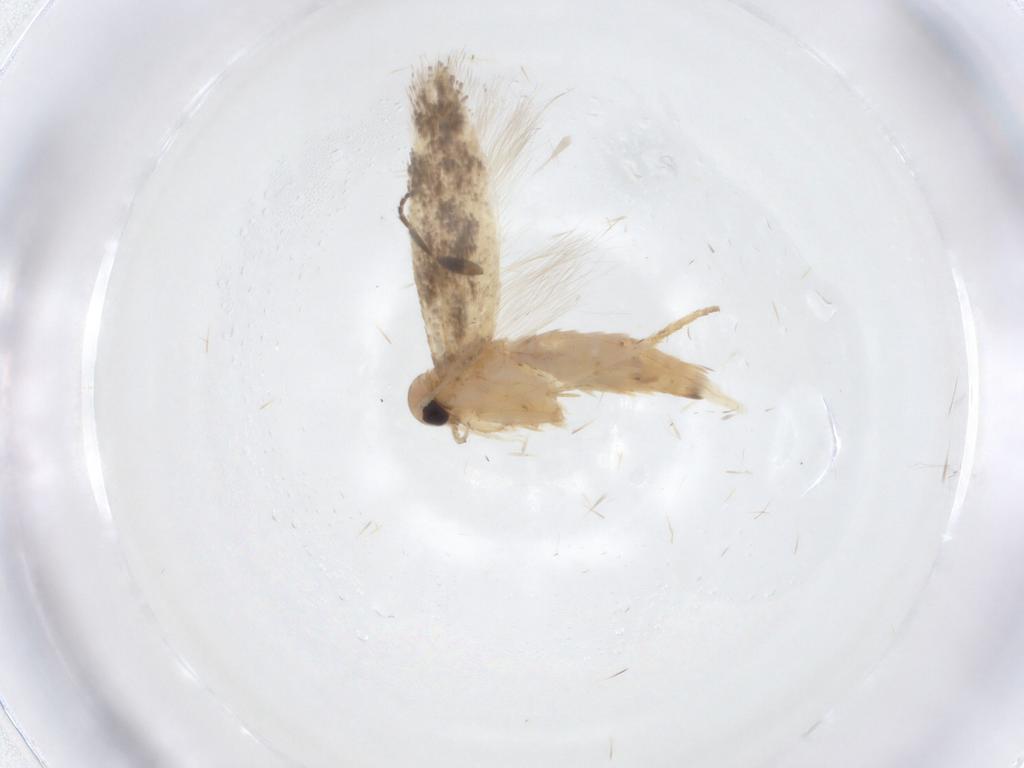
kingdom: Animalia
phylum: Arthropoda
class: Insecta
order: Lepidoptera
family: Gelechiidae
